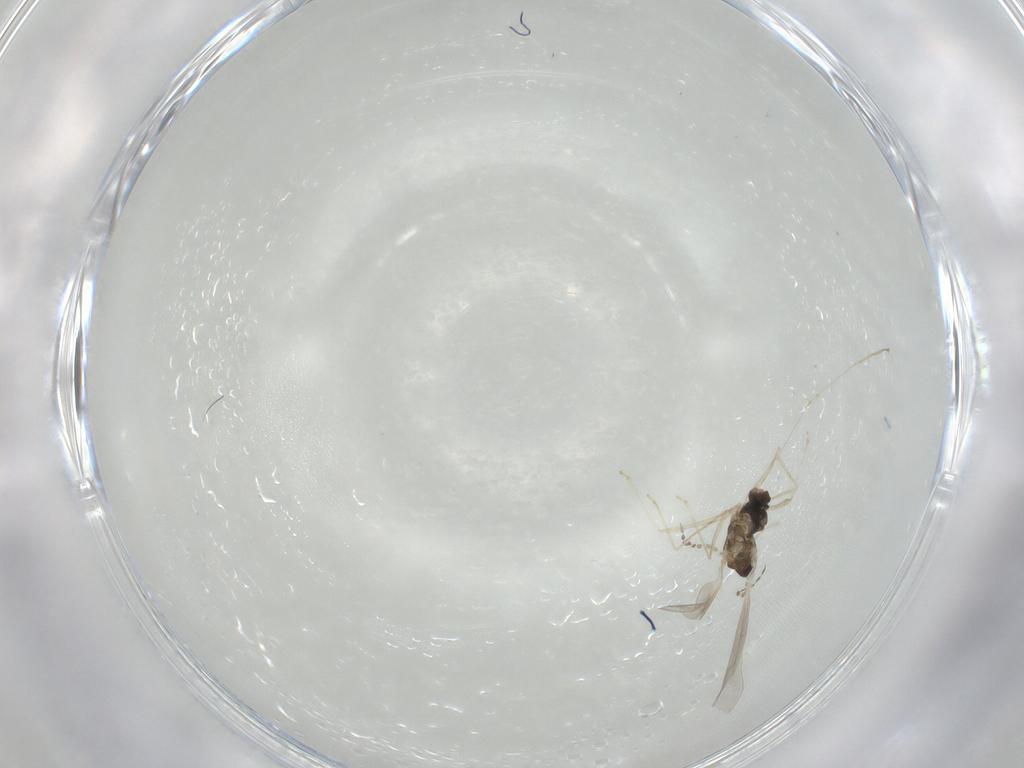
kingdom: Animalia
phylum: Arthropoda
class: Insecta
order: Diptera
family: Cecidomyiidae
